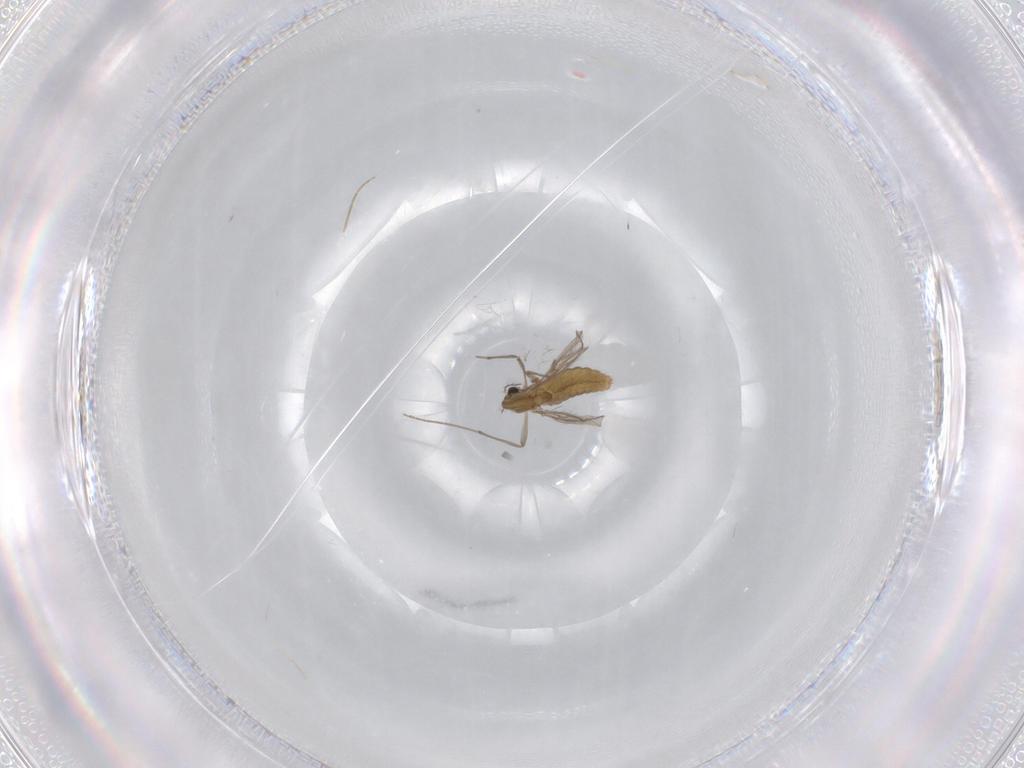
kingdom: Animalia
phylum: Arthropoda
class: Insecta
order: Diptera
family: Chironomidae
